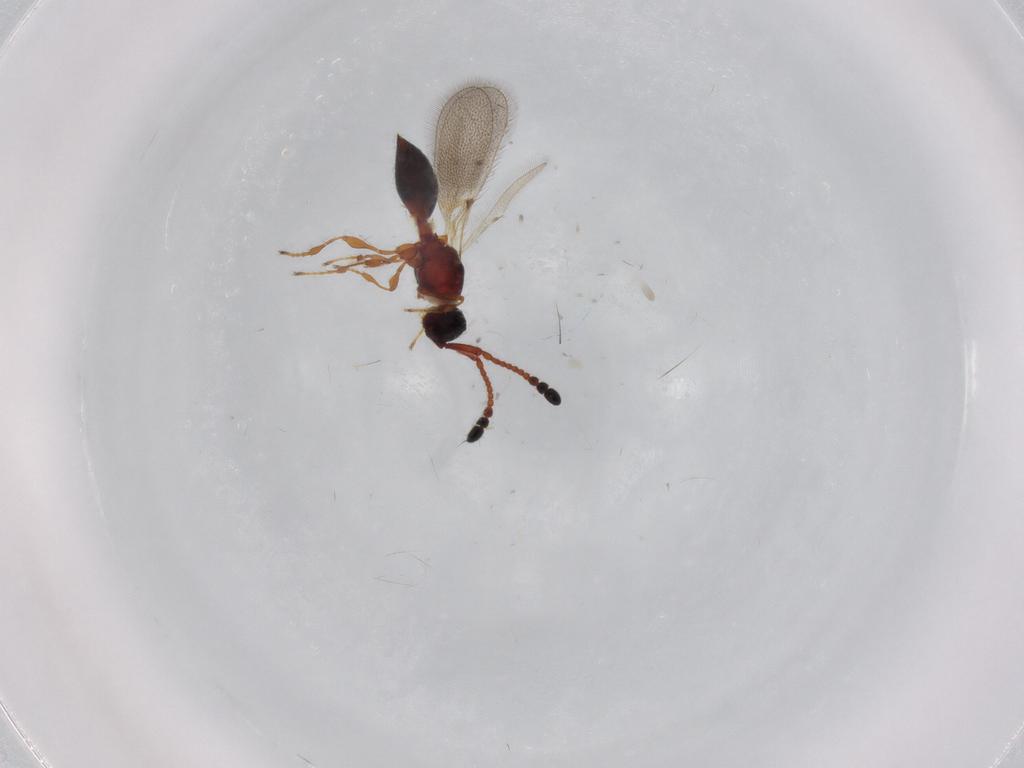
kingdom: Animalia
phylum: Arthropoda
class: Insecta
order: Hymenoptera
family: Diapriidae
